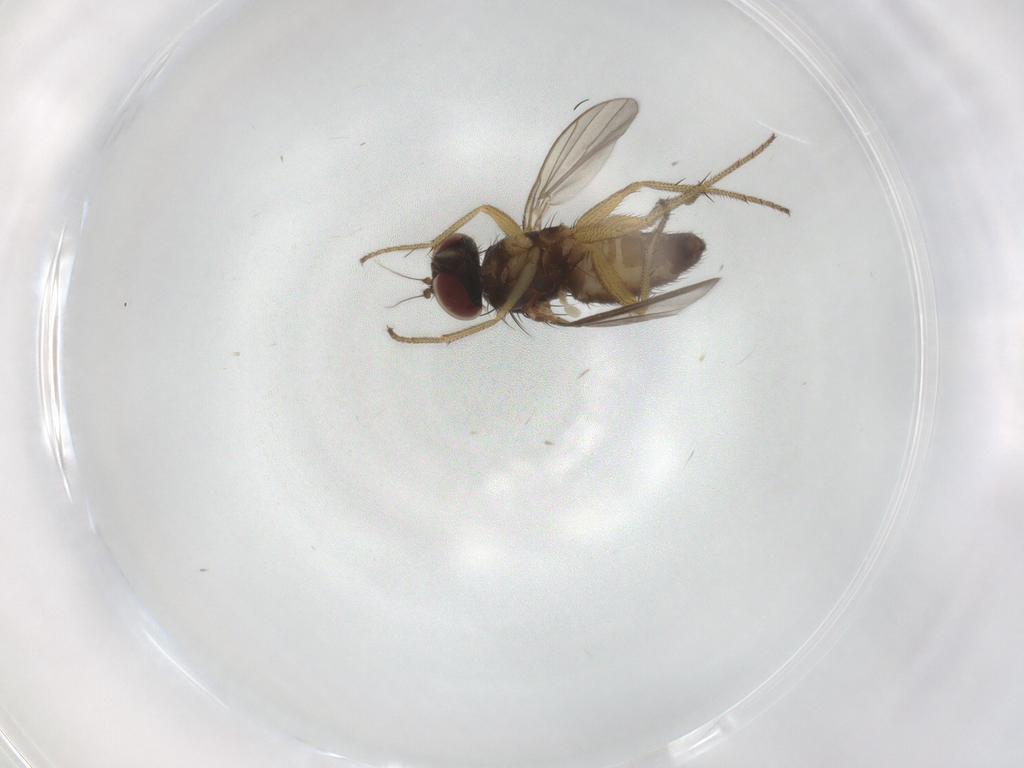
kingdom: Animalia
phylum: Arthropoda
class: Insecta
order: Diptera
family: Dolichopodidae
